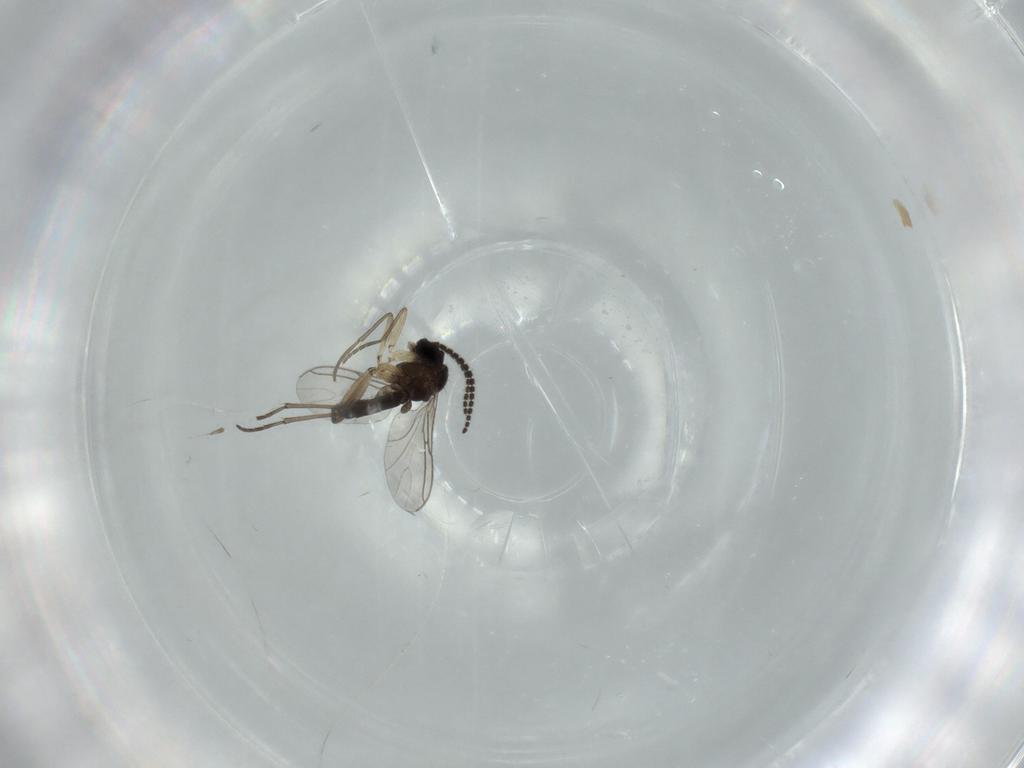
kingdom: Animalia
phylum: Arthropoda
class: Insecta
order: Diptera
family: Sciaridae
